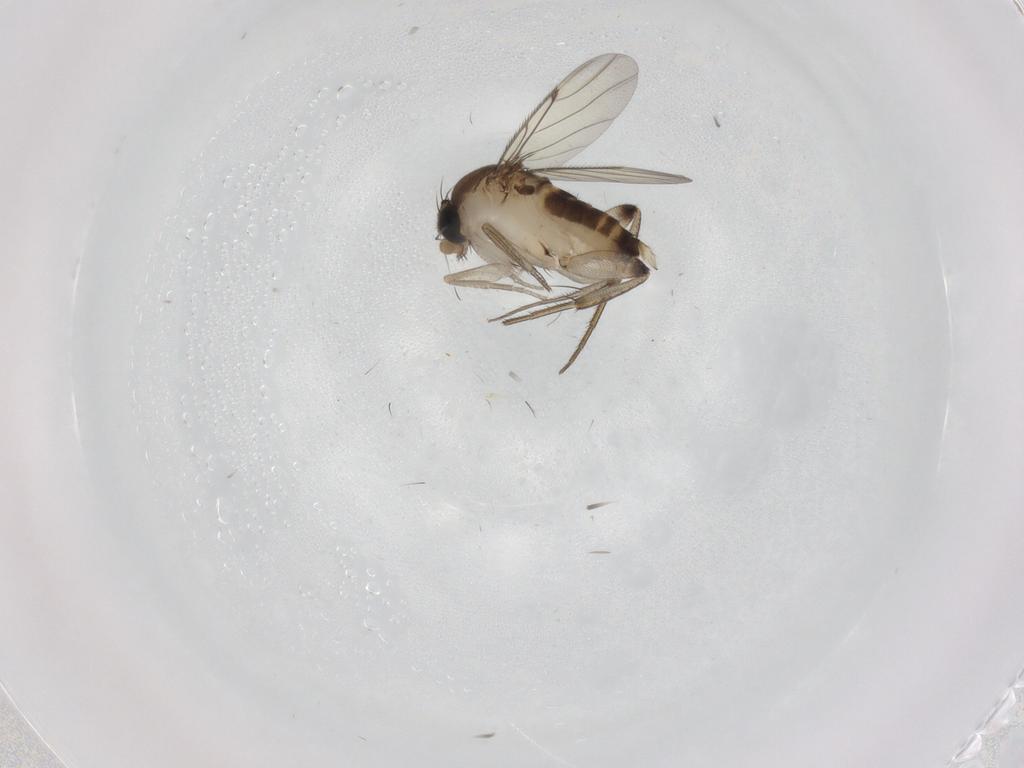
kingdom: Animalia
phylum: Arthropoda
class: Insecta
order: Diptera
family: Phoridae
